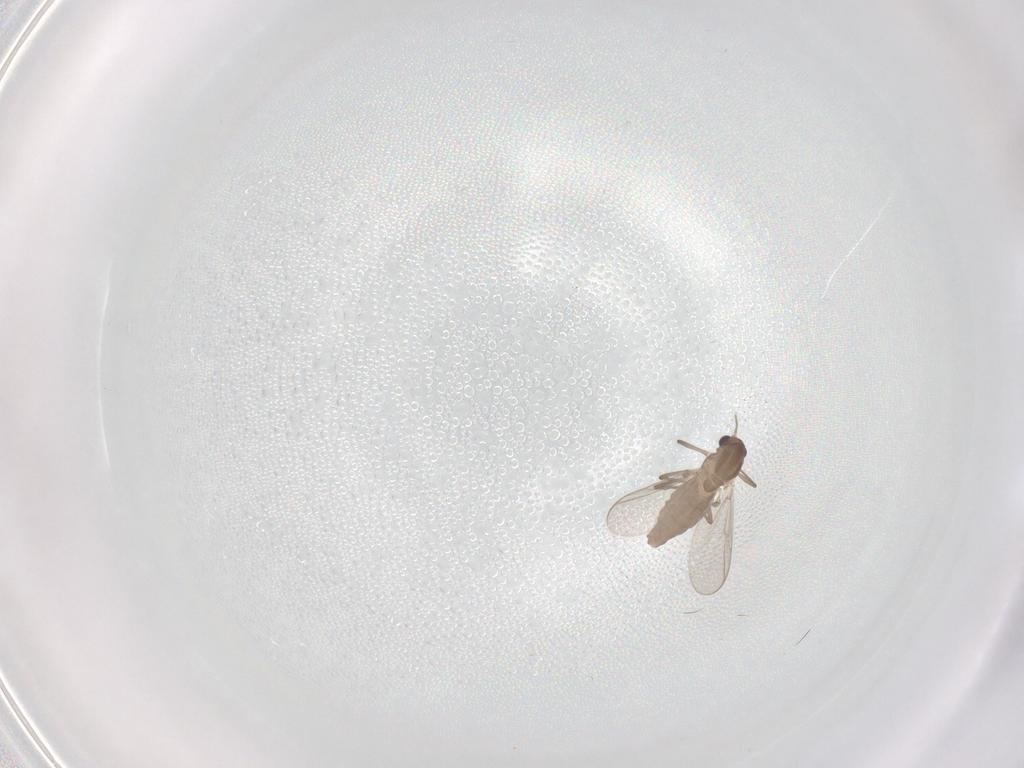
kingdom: Animalia
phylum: Arthropoda
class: Insecta
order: Diptera
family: Chironomidae
